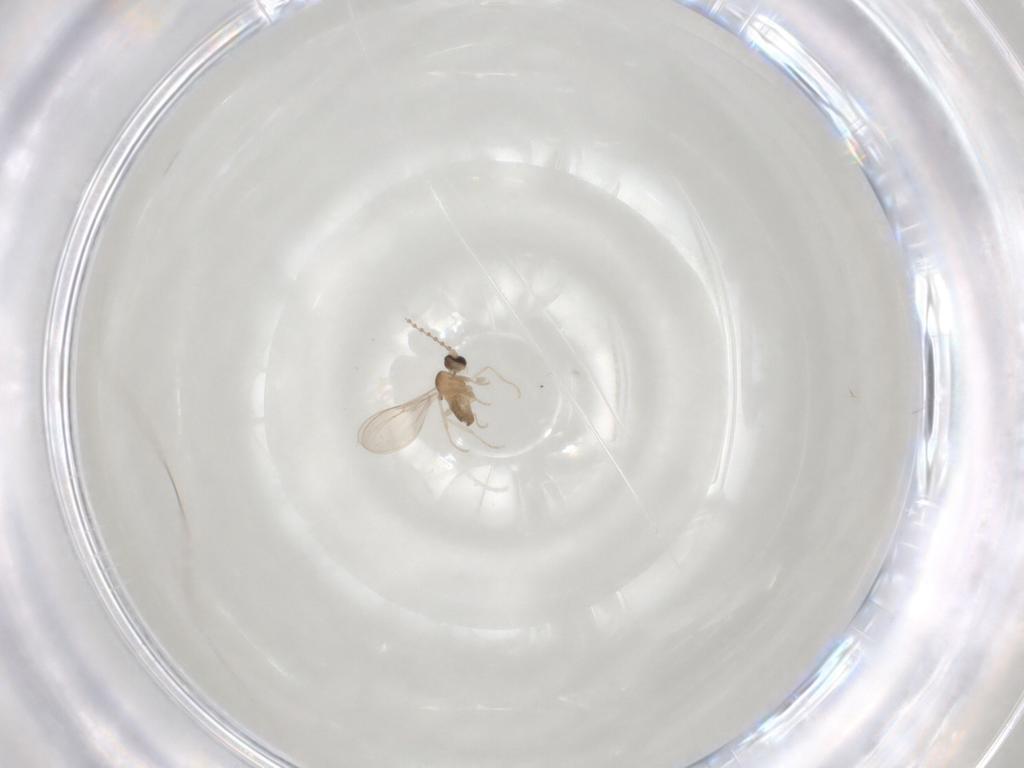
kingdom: Animalia
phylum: Arthropoda
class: Insecta
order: Diptera
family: Cecidomyiidae
